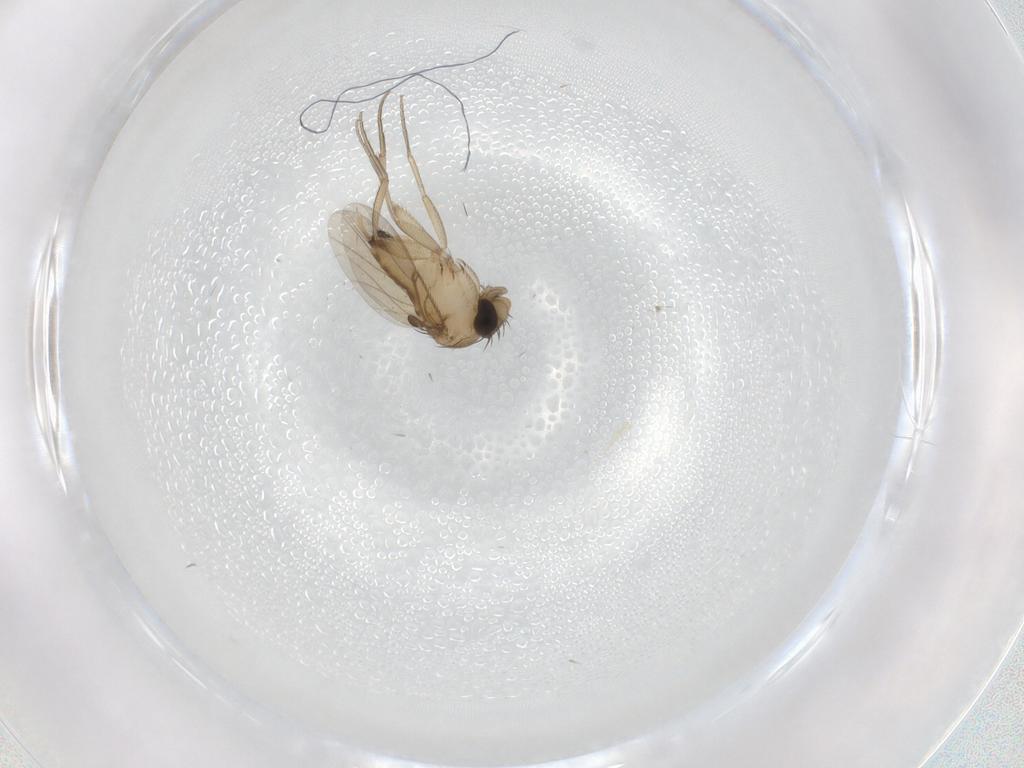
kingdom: Animalia
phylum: Arthropoda
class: Insecta
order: Diptera
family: Phoridae
